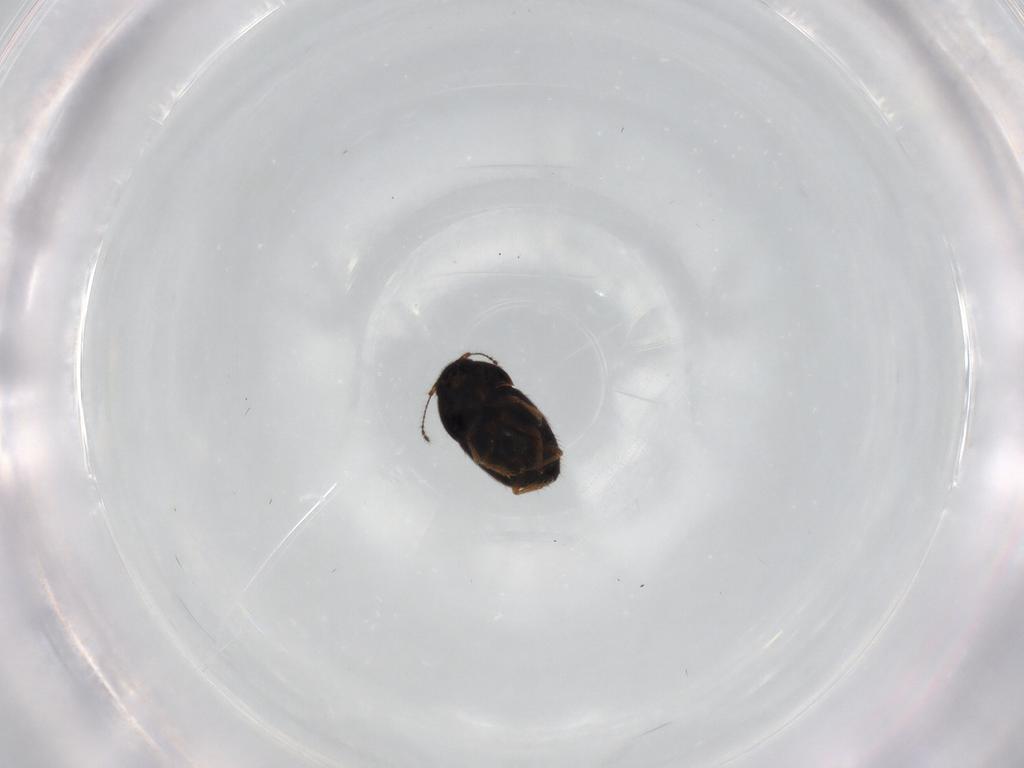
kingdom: Animalia
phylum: Arthropoda
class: Insecta
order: Coleoptera
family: Ptiliidae
